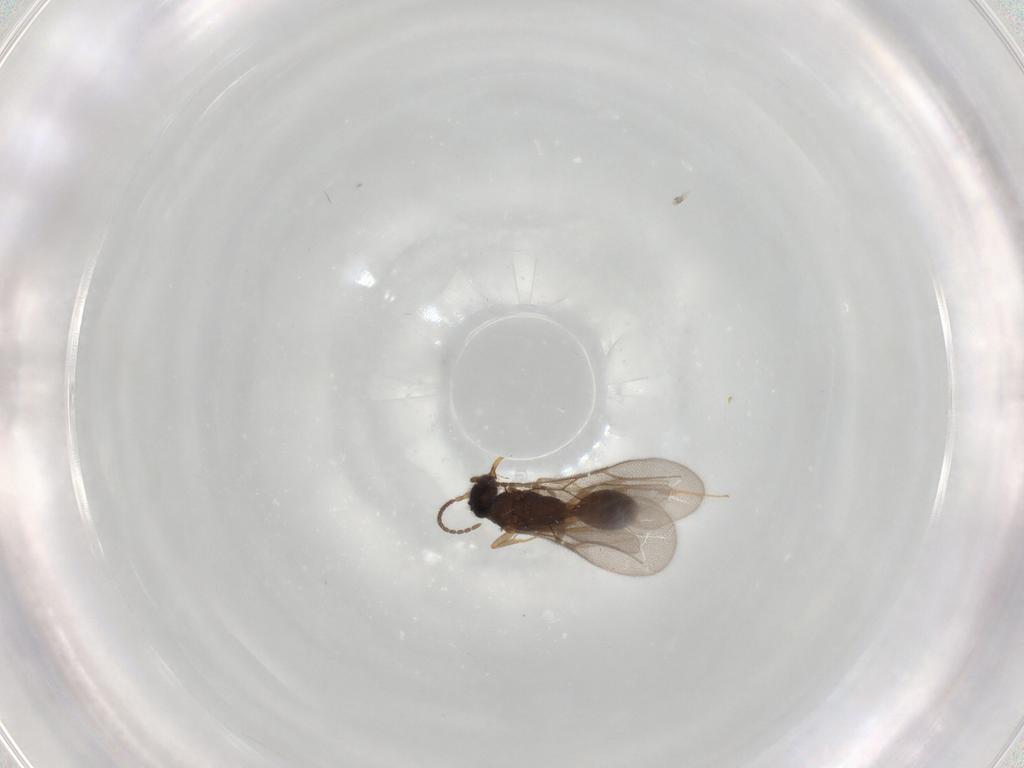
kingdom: Animalia
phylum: Arthropoda
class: Insecta
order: Hymenoptera
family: Bethylidae
